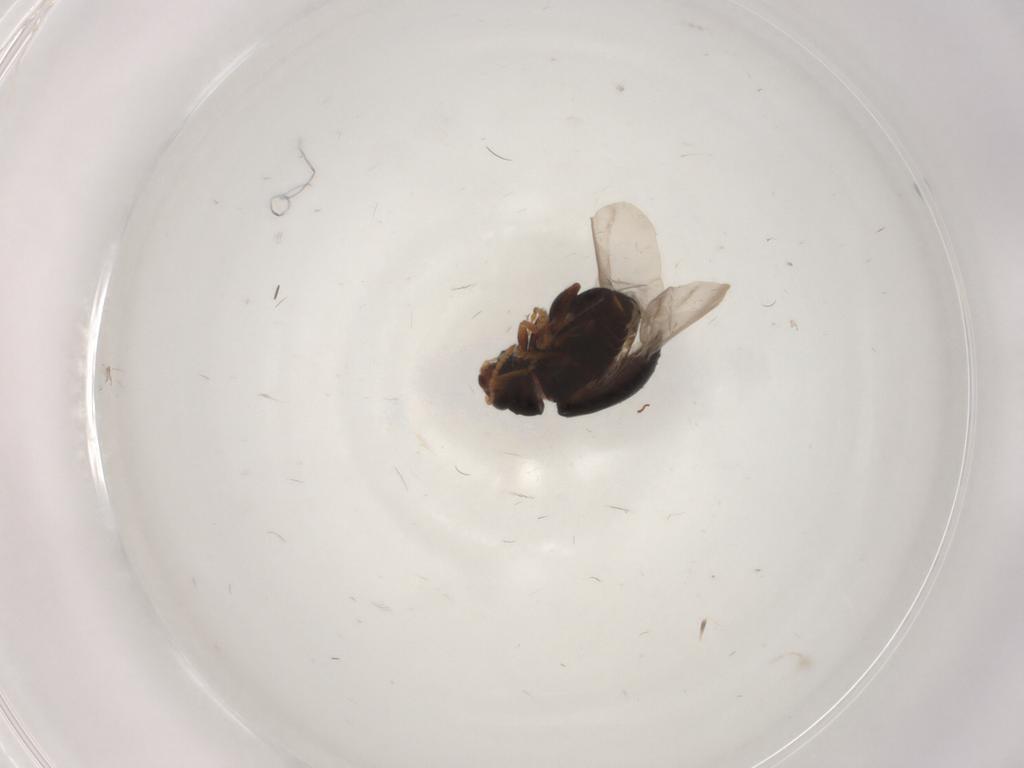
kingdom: Animalia
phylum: Arthropoda
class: Insecta
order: Coleoptera
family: Chrysomelidae
